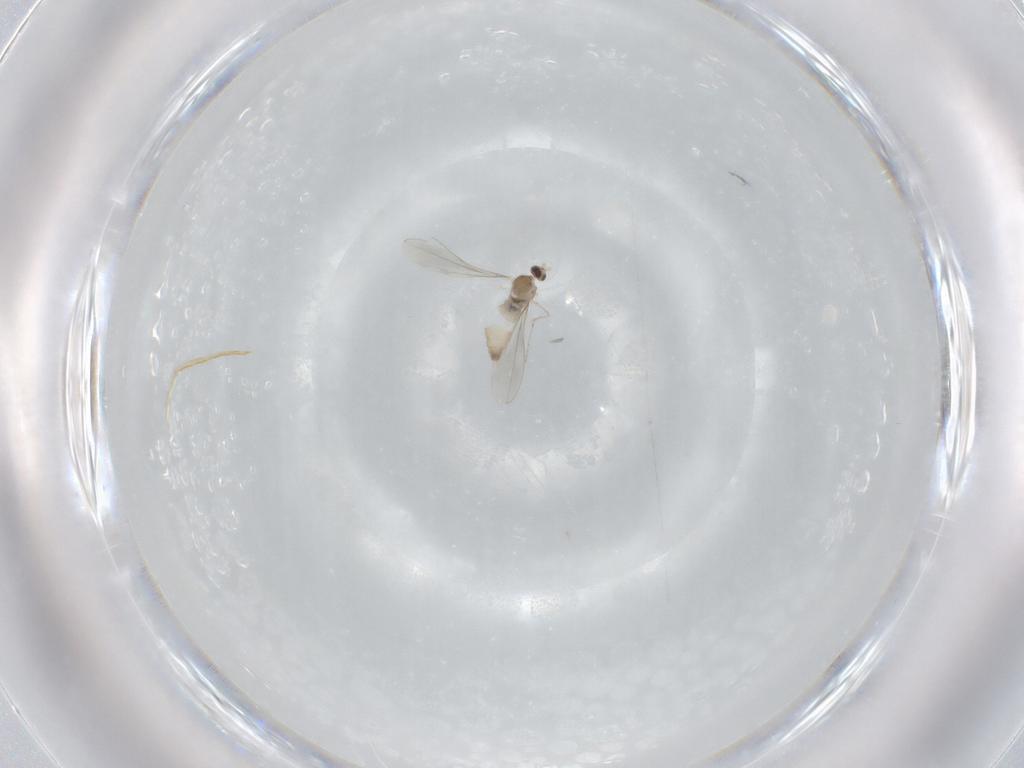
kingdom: Animalia
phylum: Arthropoda
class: Insecta
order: Diptera
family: Cecidomyiidae
